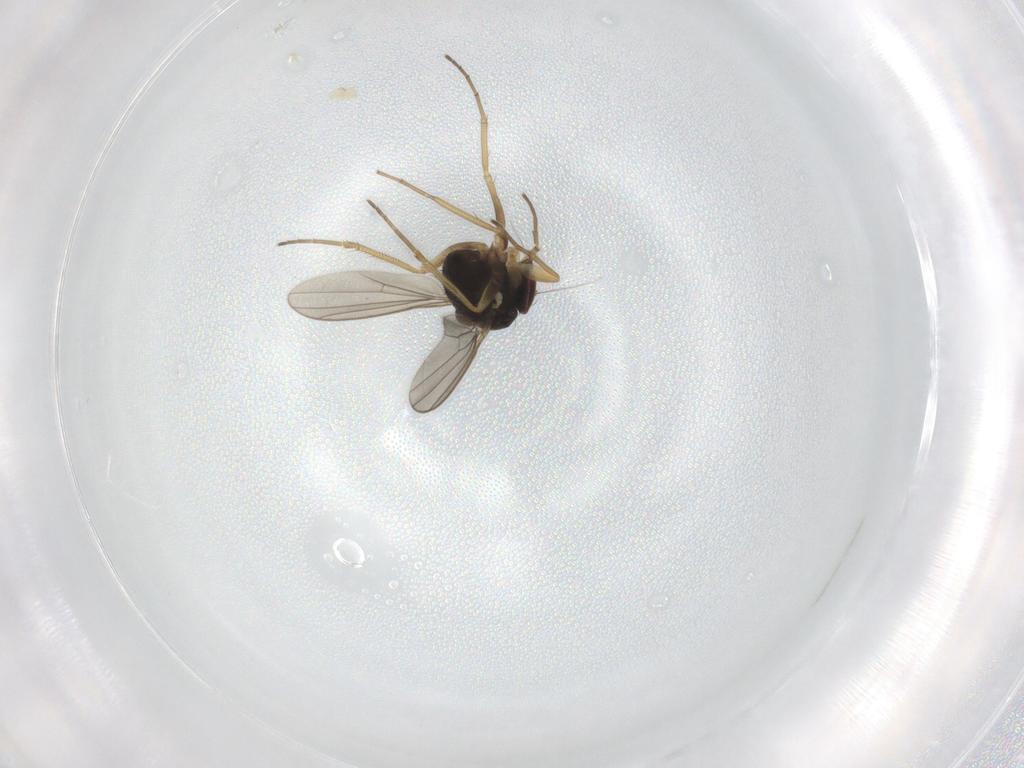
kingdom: Animalia
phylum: Arthropoda
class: Insecta
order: Diptera
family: Dolichopodidae
